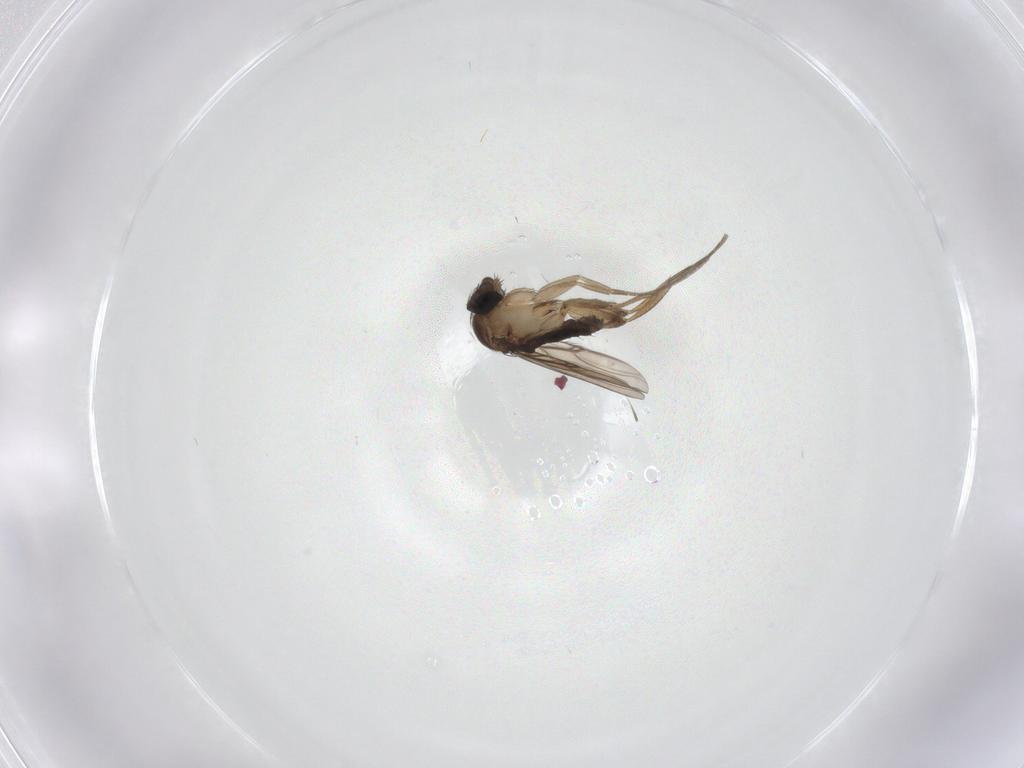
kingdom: Animalia
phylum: Arthropoda
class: Insecta
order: Diptera
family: Phoridae
